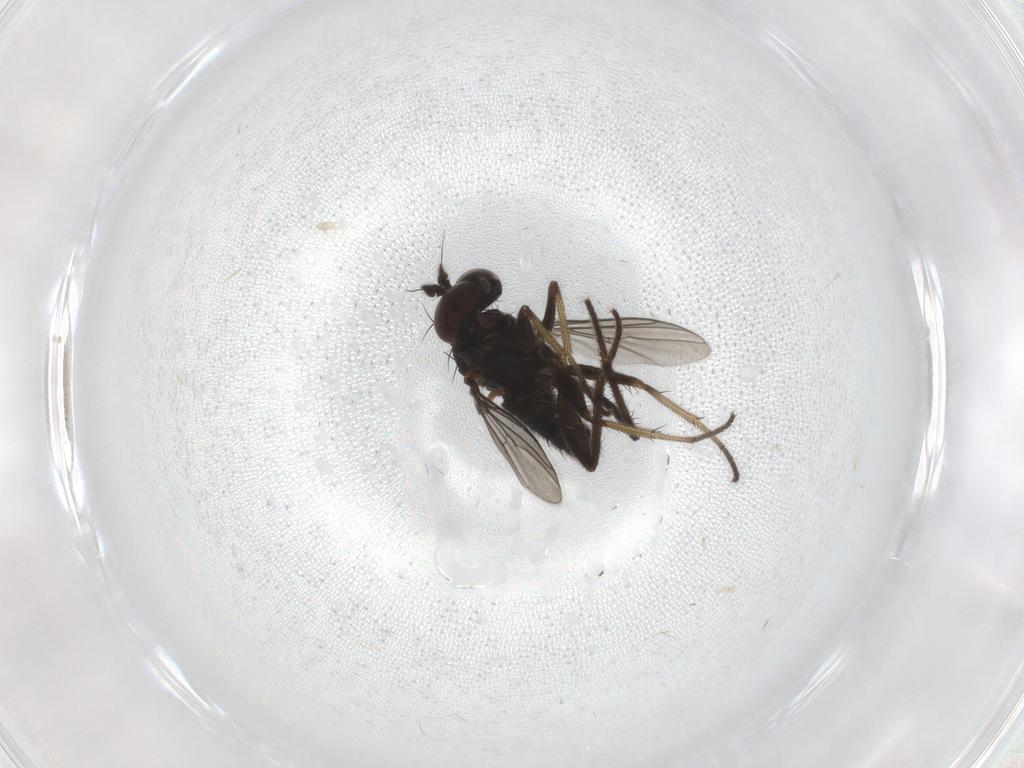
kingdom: Animalia
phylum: Arthropoda
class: Insecta
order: Diptera
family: Dolichopodidae
